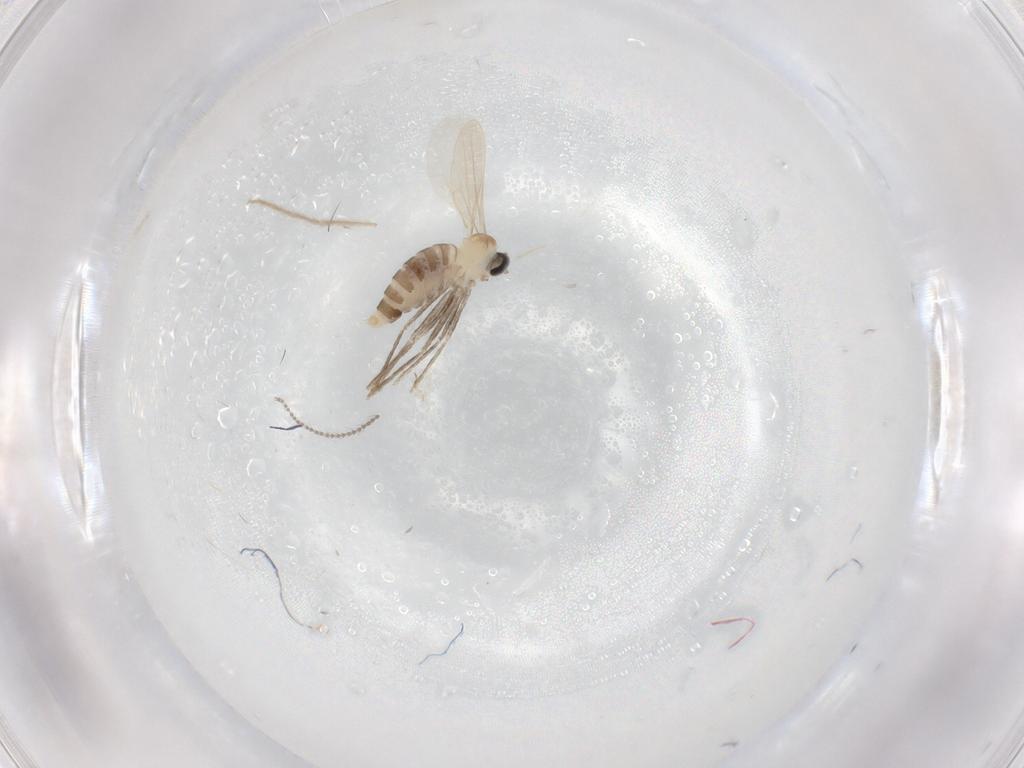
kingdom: Animalia
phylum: Arthropoda
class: Insecta
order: Diptera
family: Cecidomyiidae
